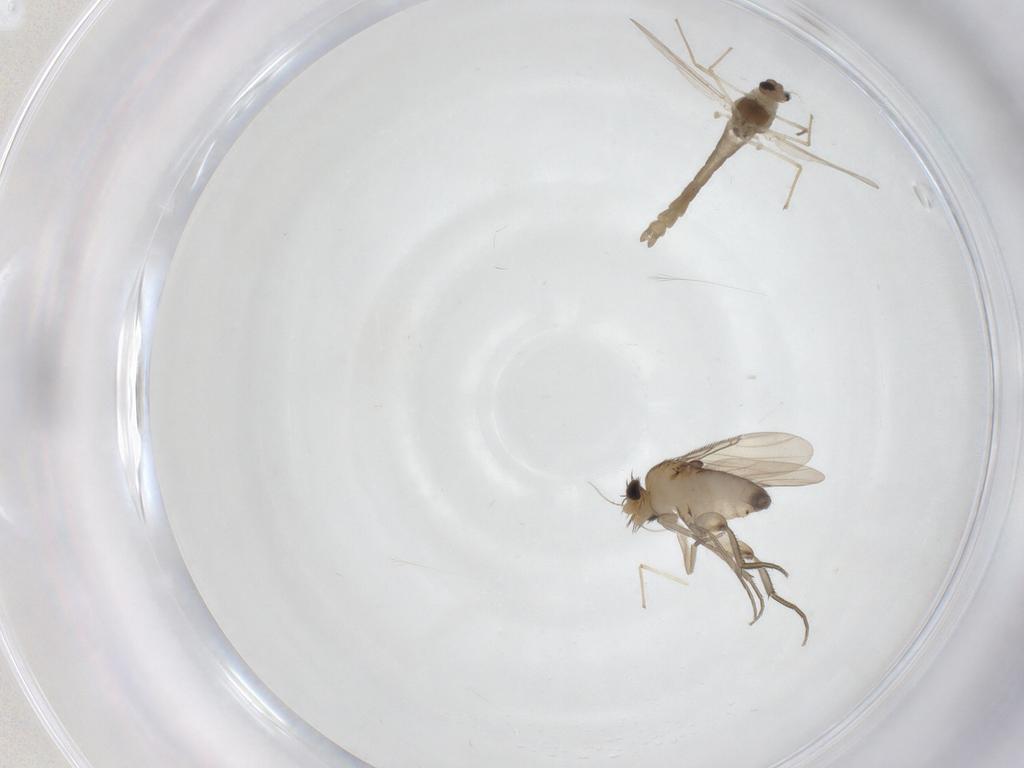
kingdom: Animalia
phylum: Arthropoda
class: Insecta
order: Diptera
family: Phoridae
